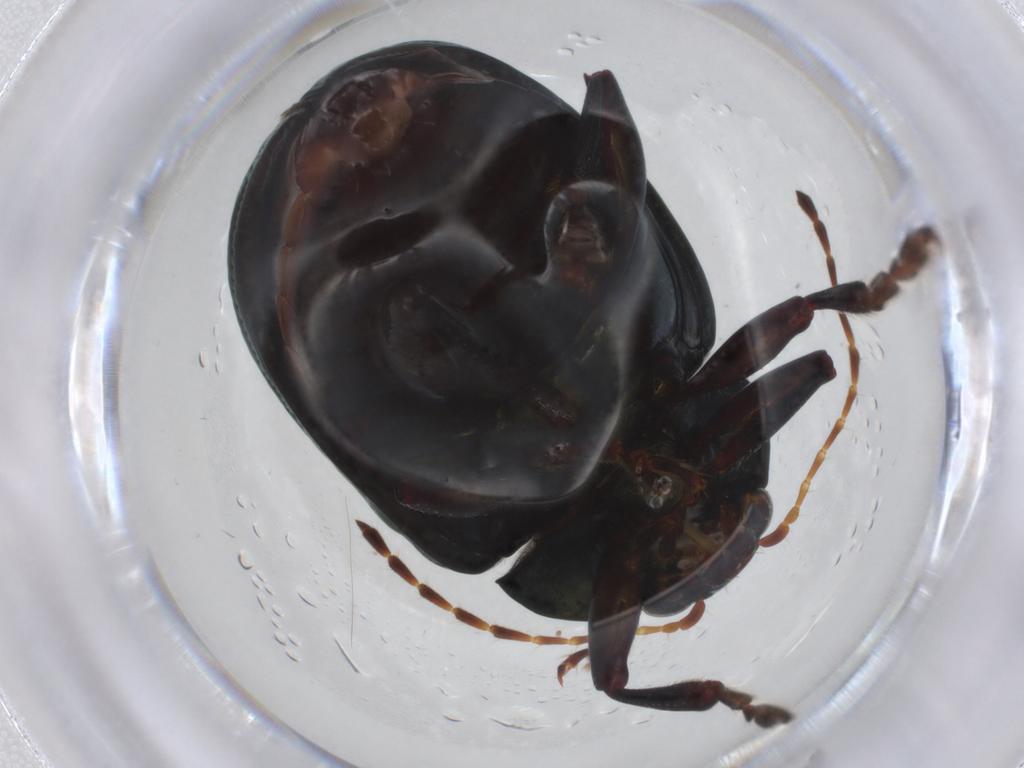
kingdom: Animalia
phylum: Arthropoda
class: Insecta
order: Coleoptera
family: Chrysomelidae
